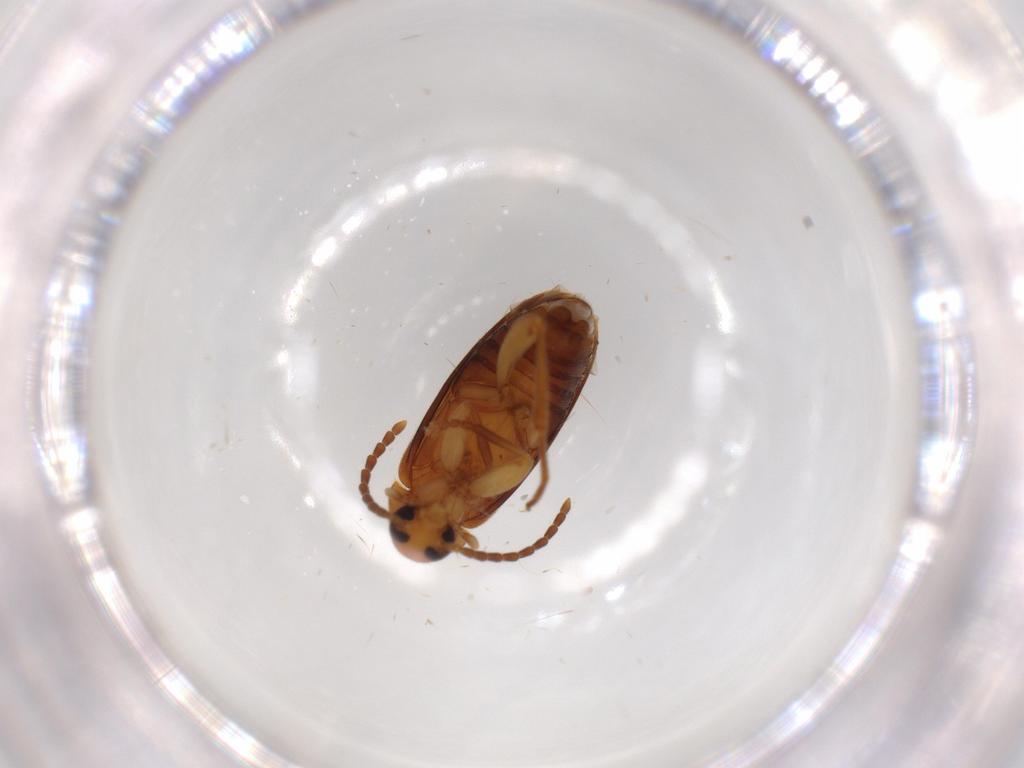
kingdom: Animalia
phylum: Arthropoda
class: Insecta
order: Coleoptera
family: Scraptiidae
